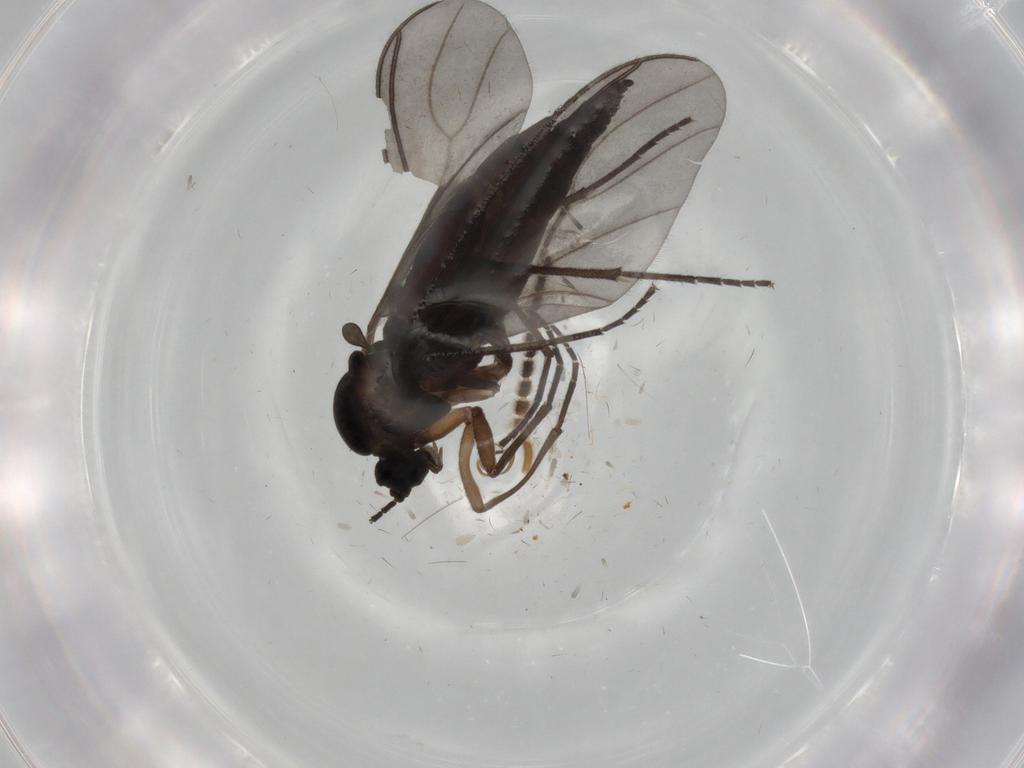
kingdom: Animalia
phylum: Arthropoda
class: Insecta
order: Diptera
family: Sciaridae
